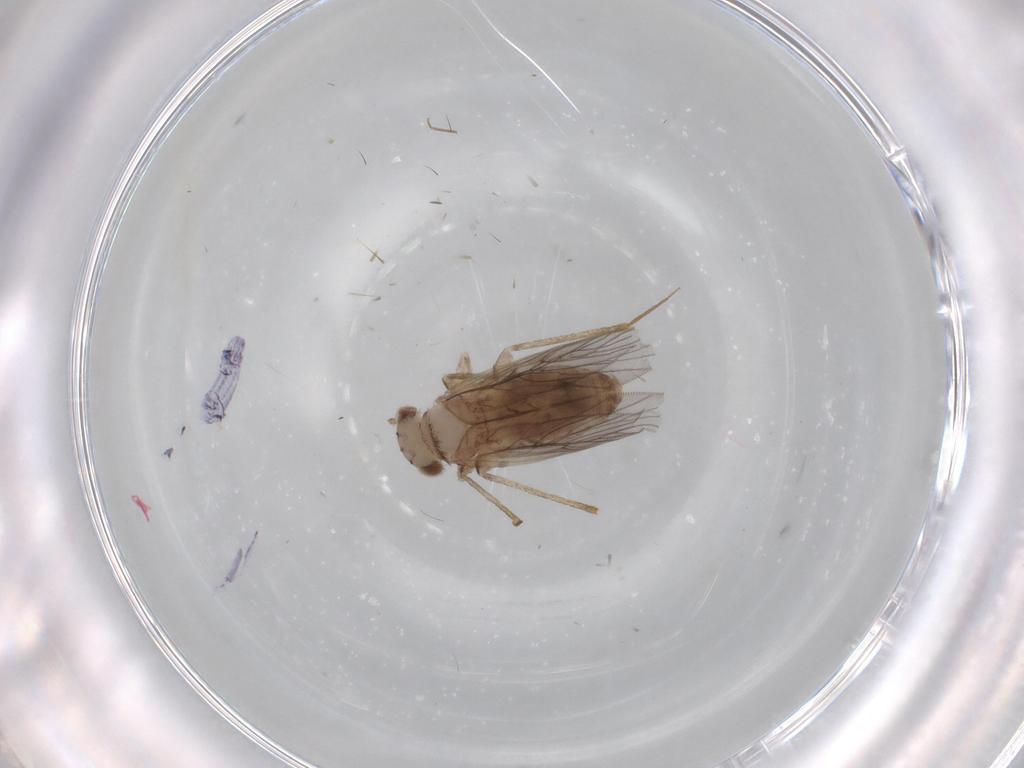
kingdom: Animalia
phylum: Arthropoda
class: Insecta
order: Psocodea
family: Lepidopsocidae
